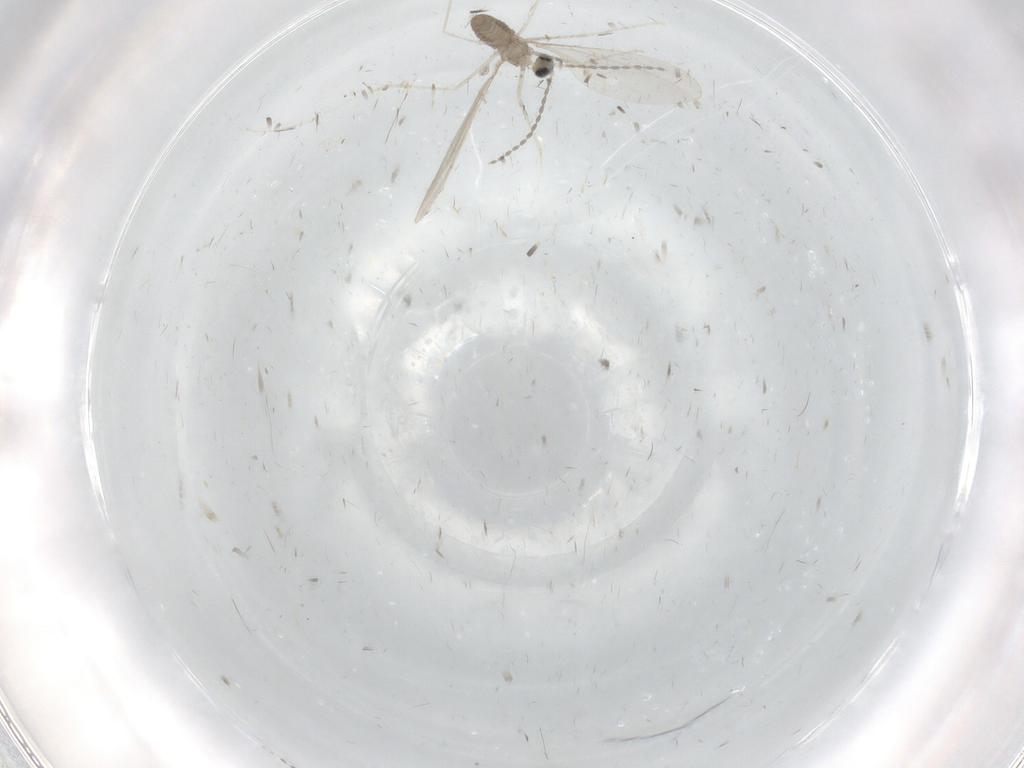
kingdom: Animalia
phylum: Arthropoda
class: Insecta
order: Diptera
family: Cecidomyiidae
